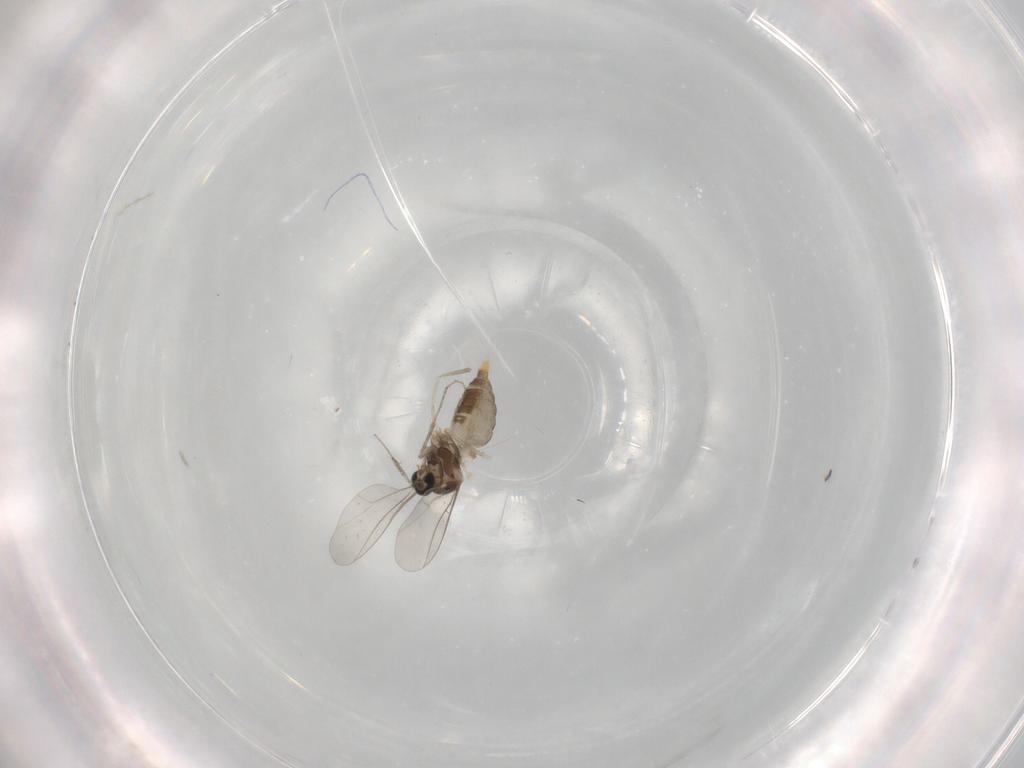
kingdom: Animalia
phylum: Arthropoda
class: Insecta
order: Diptera
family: Cecidomyiidae
